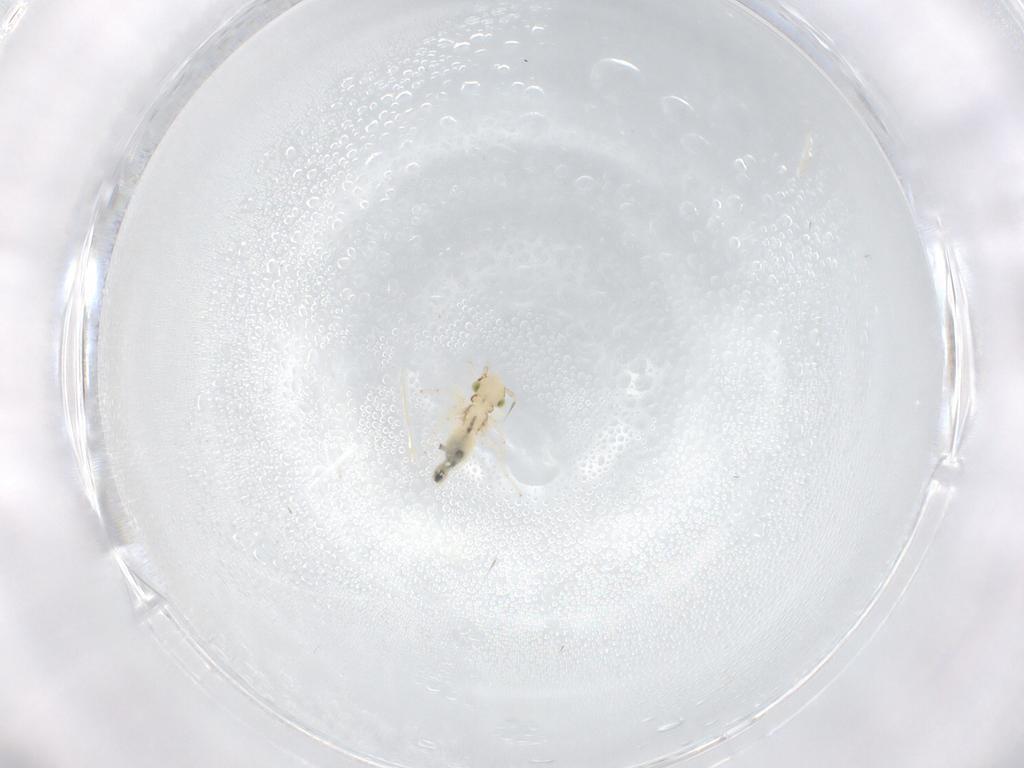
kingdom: Animalia
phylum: Arthropoda
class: Insecta
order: Psocodea
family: Lepidopsocidae
